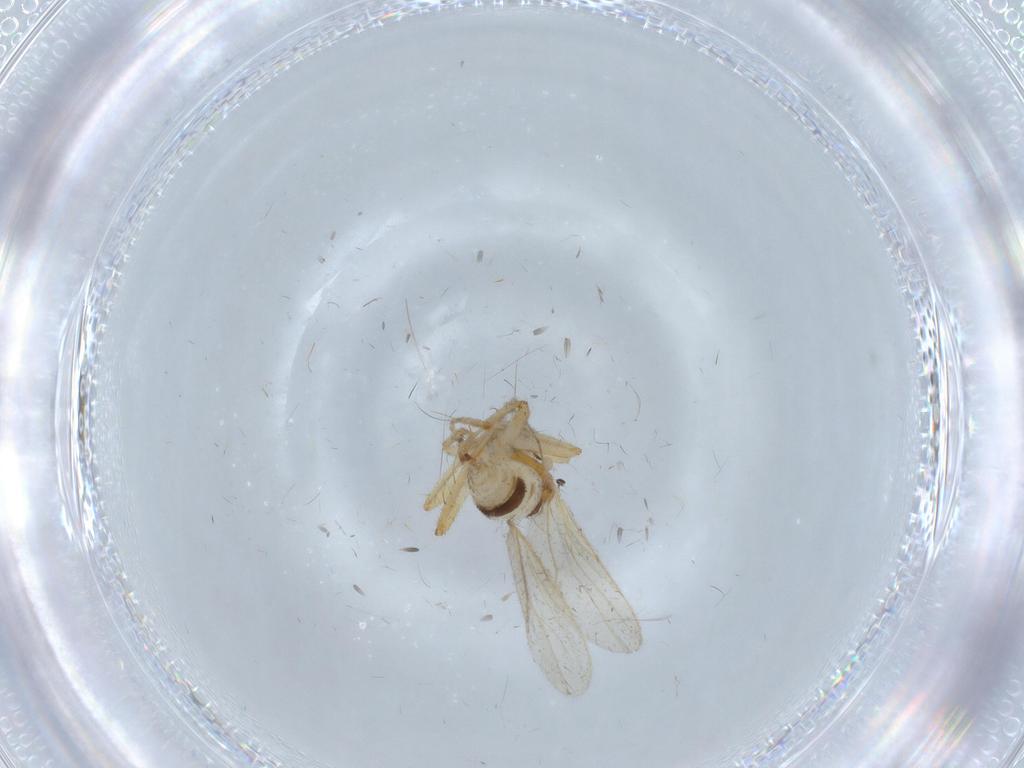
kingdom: Animalia
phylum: Arthropoda
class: Insecta
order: Diptera
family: Hybotidae
